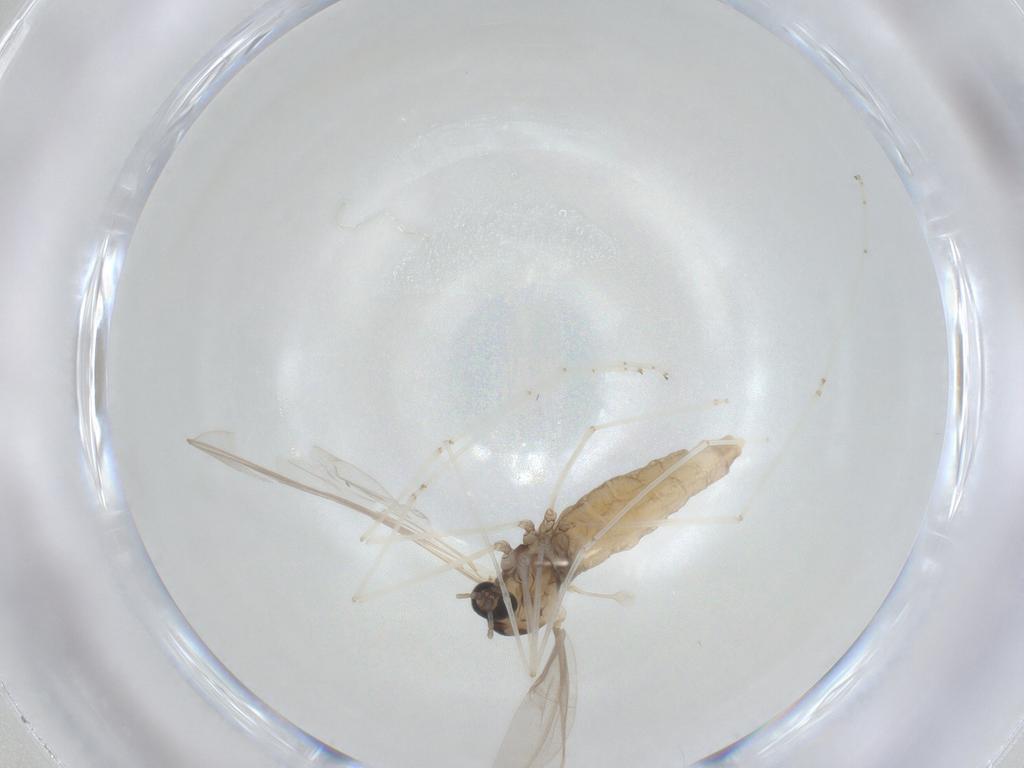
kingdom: Animalia
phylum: Arthropoda
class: Insecta
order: Diptera
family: Cecidomyiidae
